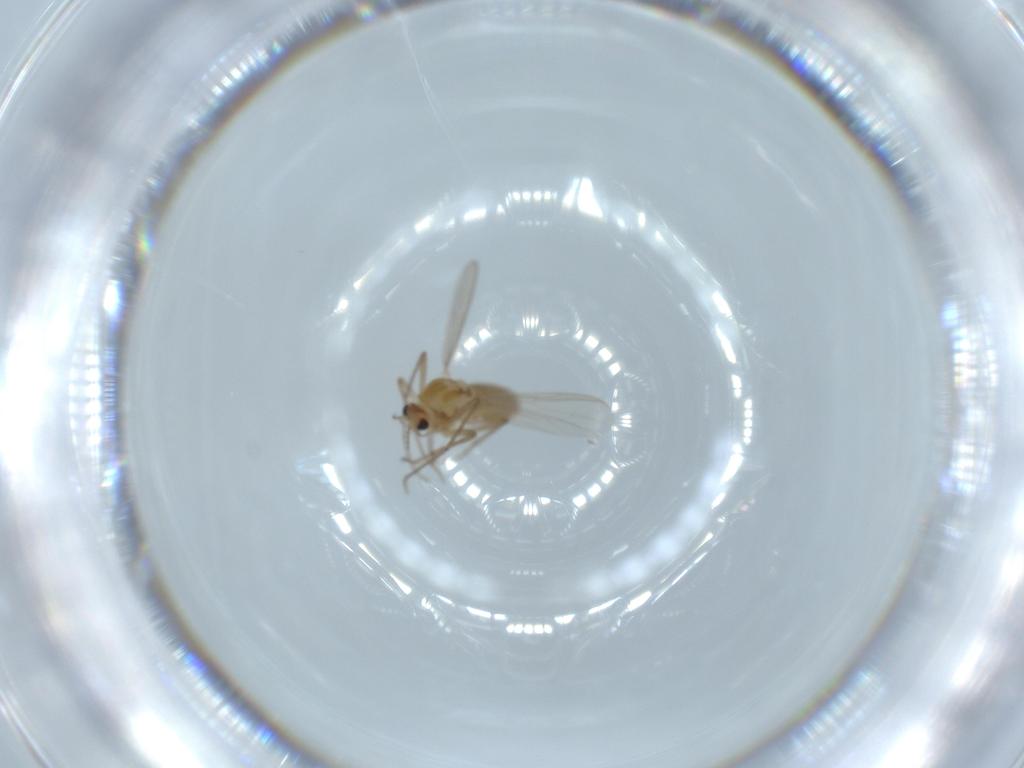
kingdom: Animalia
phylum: Arthropoda
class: Insecta
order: Diptera
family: Chironomidae
